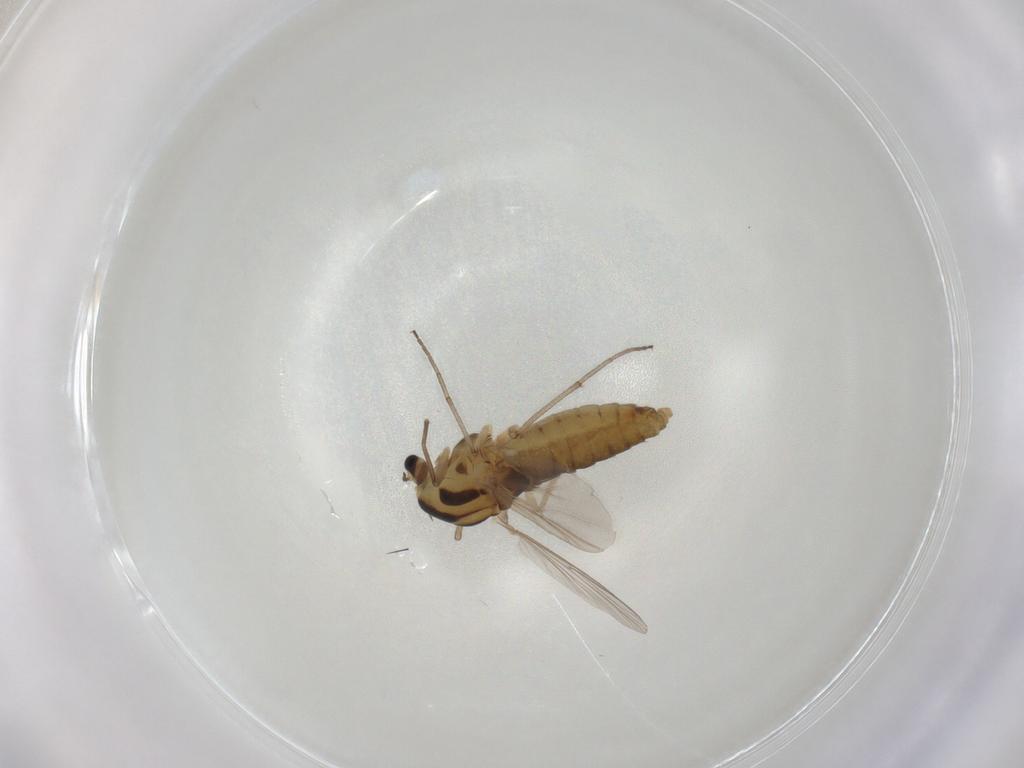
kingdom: Animalia
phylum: Arthropoda
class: Insecta
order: Diptera
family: Chironomidae
